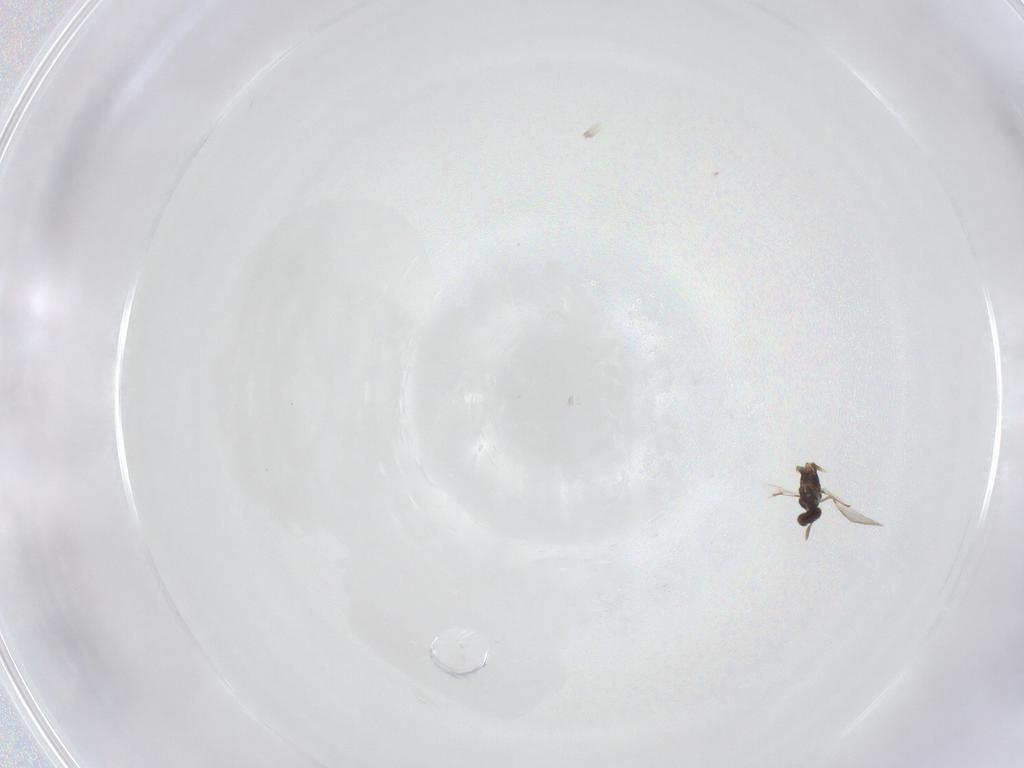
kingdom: Animalia
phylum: Arthropoda
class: Insecta
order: Hymenoptera
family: Mymaridae
